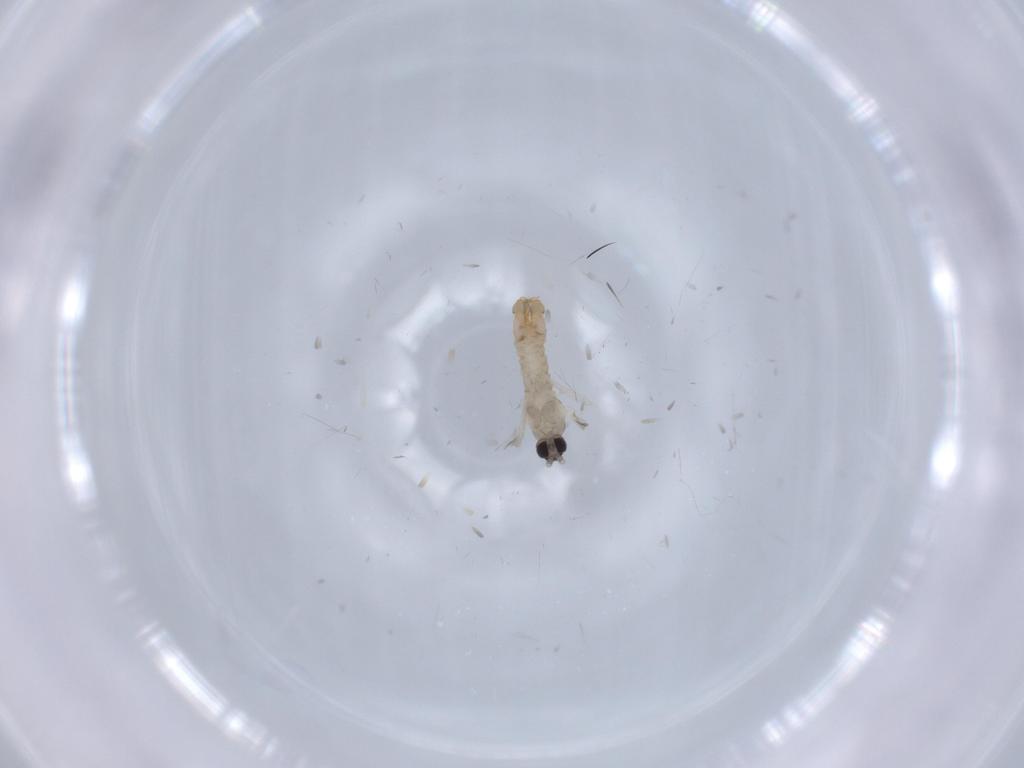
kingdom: Animalia
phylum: Arthropoda
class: Insecta
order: Diptera
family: Cecidomyiidae
